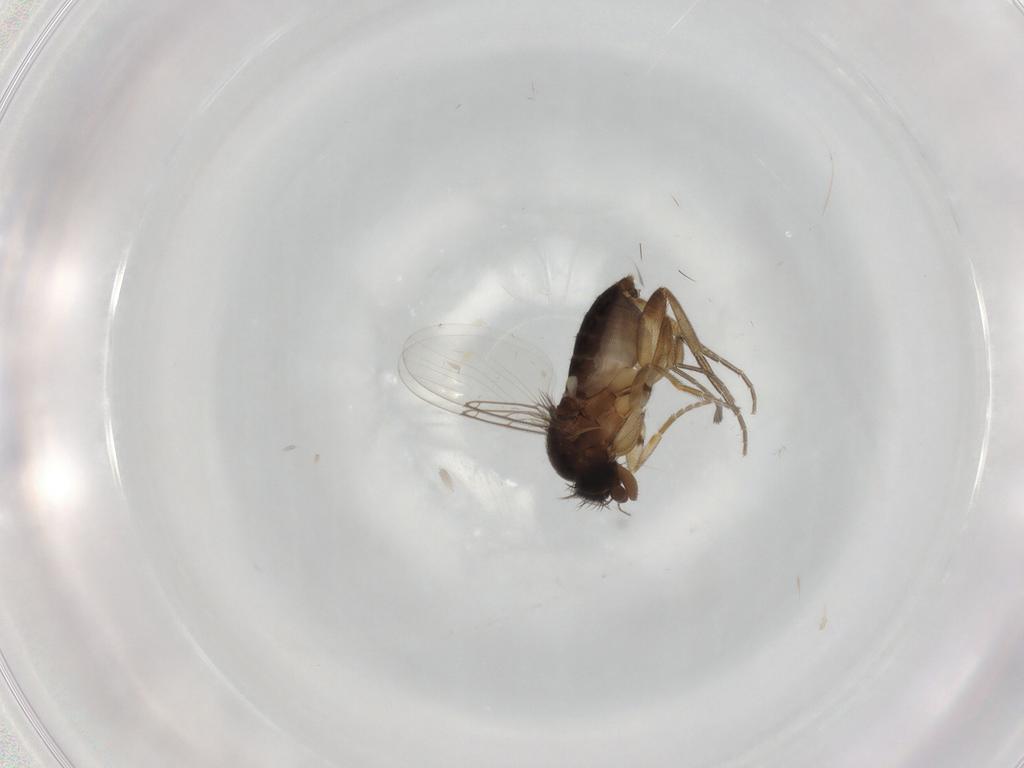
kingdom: Animalia
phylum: Arthropoda
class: Insecta
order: Diptera
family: Phoridae
